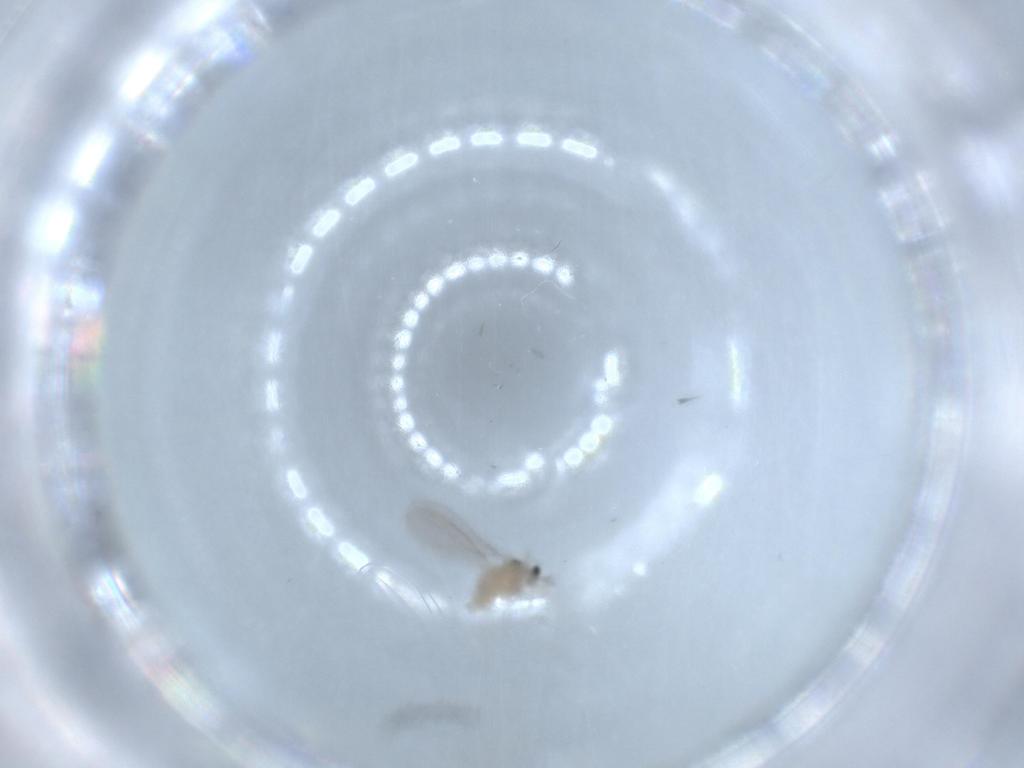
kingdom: Animalia
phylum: Arthropoda
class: Insecta
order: Diptera
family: Cecidomyiidae
